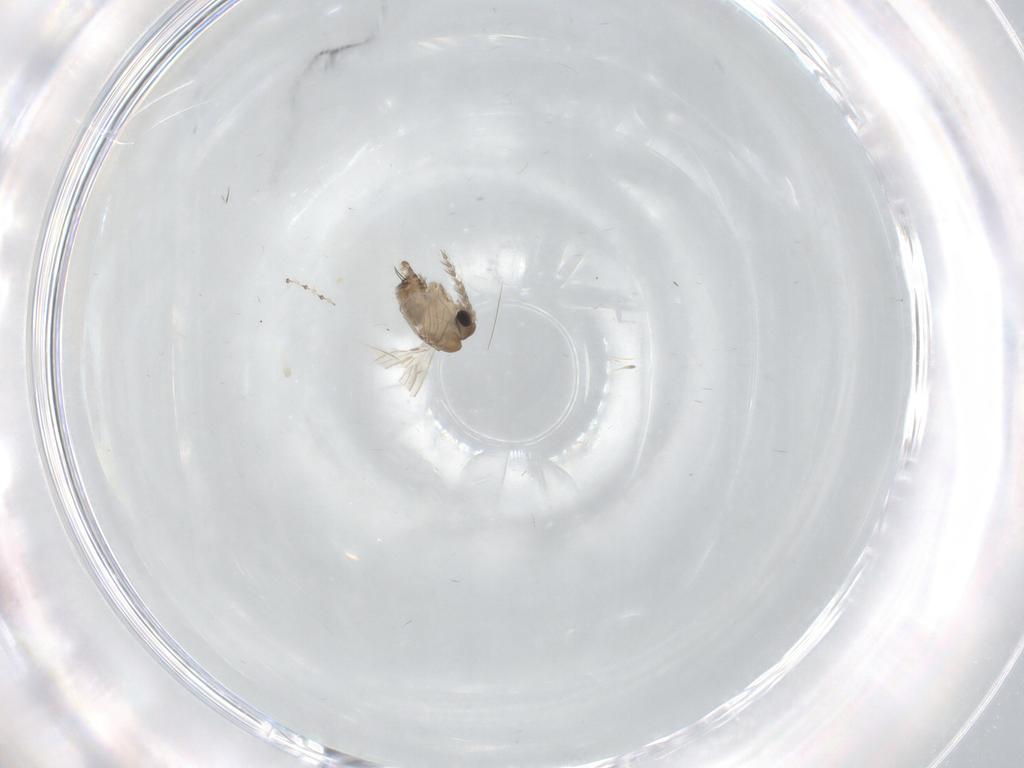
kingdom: Animalia
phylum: Arthropoda
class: Insecta
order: Diptera
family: Psychodidae
